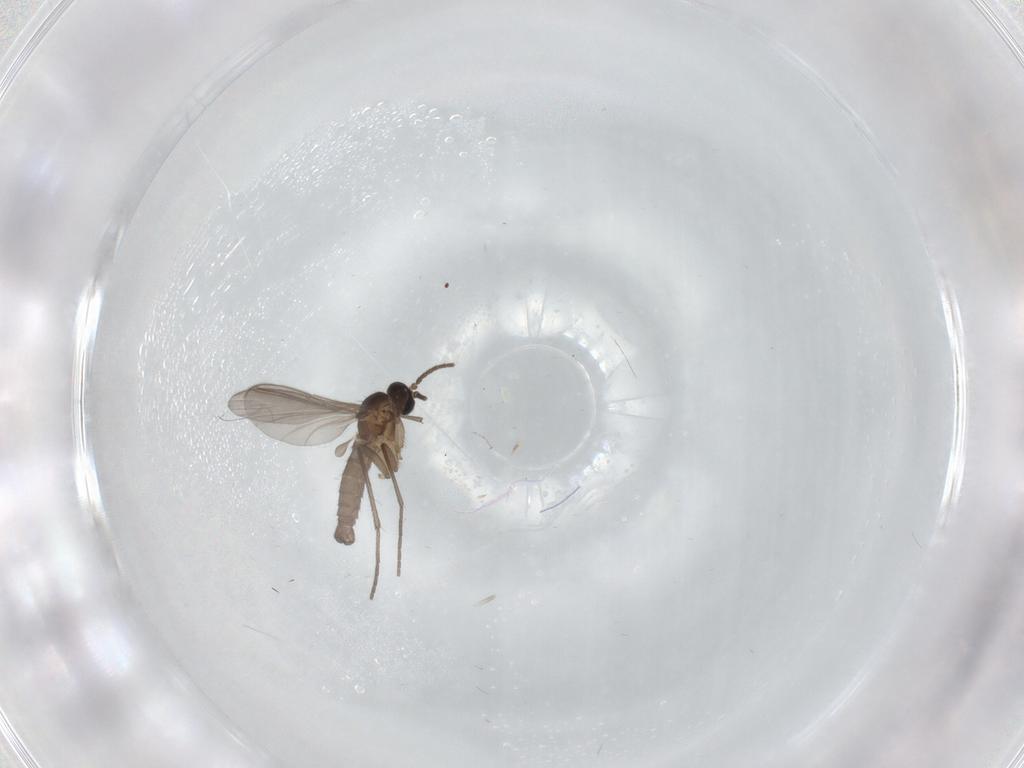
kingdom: Animalia
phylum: Arthropoda
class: Insecta
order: Diptera
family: Sciaridae
